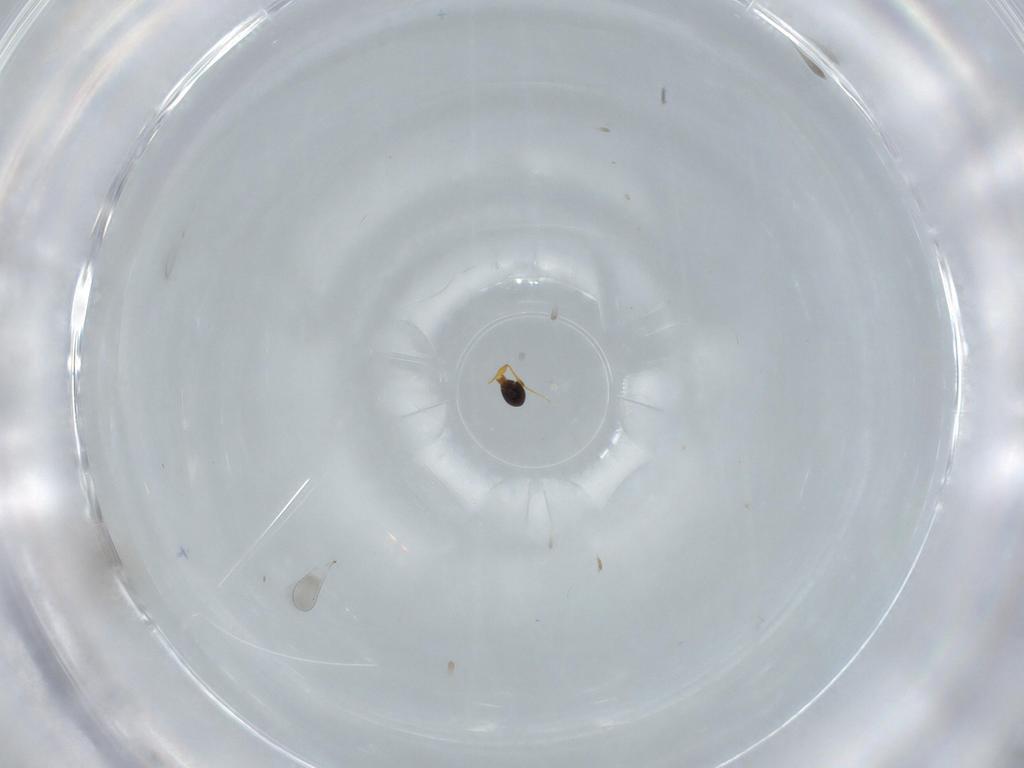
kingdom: Animalia
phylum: Arthropoda
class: Insecta
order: Hymenoptera
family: Platygastridae
